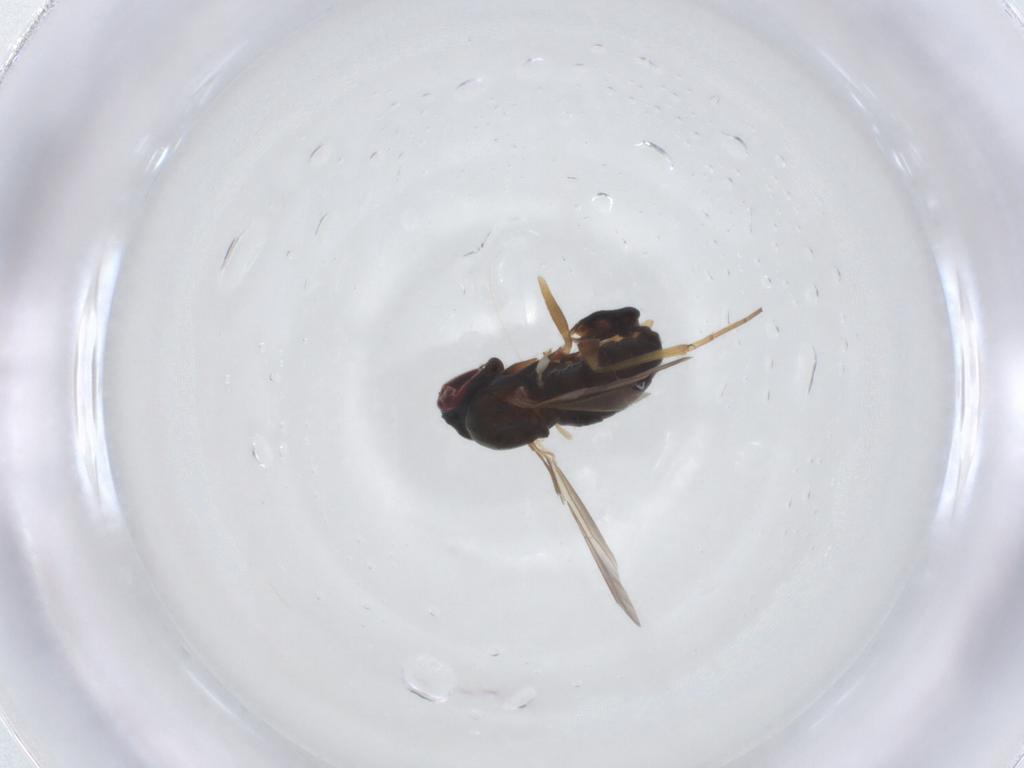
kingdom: Animalia
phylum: Arthropoda
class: Insecta
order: Diptera
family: Dolichopodidae
